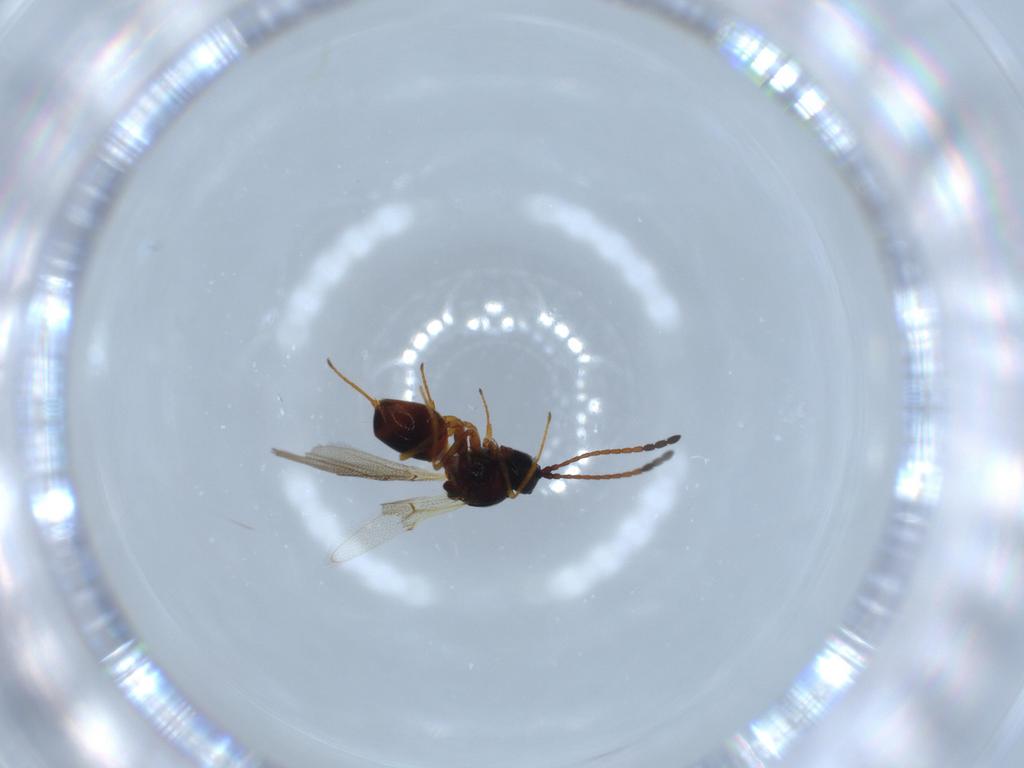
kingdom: Animalia
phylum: Arthropoda
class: Insecta
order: Hymenoptera
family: Figitidae
